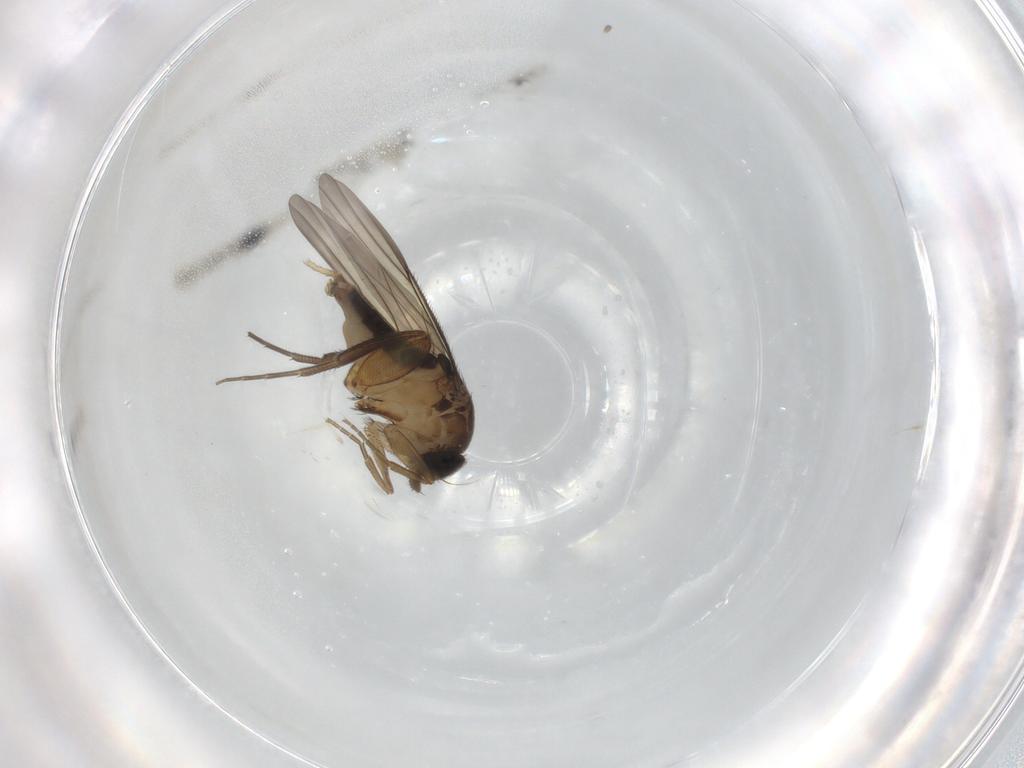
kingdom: Animalia
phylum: Arthropoda
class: Insecta
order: Diptera
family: Phoridae
